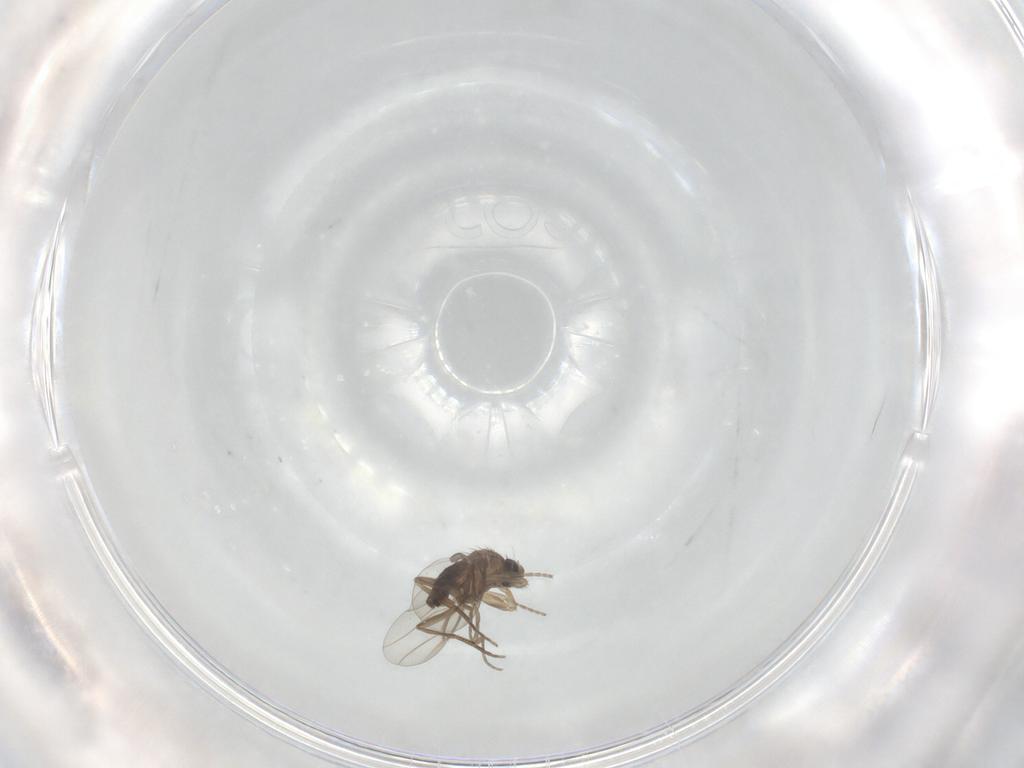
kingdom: Animalia
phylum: Arthropoda
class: Insecta
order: Diptera
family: Phoridae
